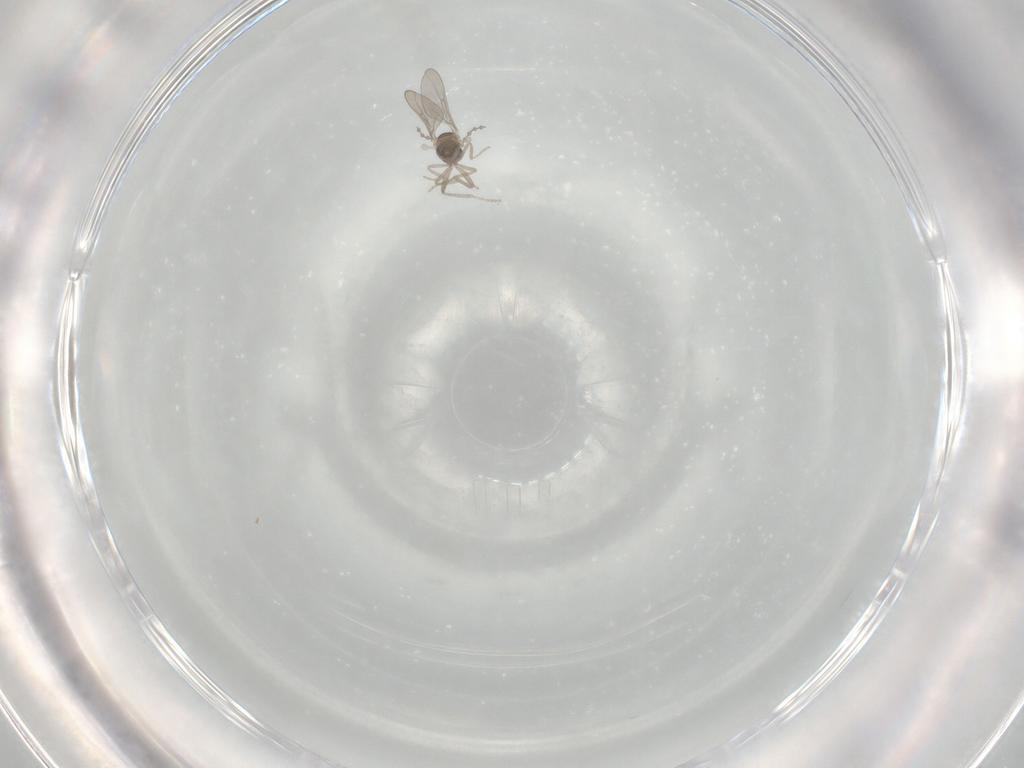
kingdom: Animalia
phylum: Arthropoda
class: Insecta
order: Diptera
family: Cecidomyiidae
